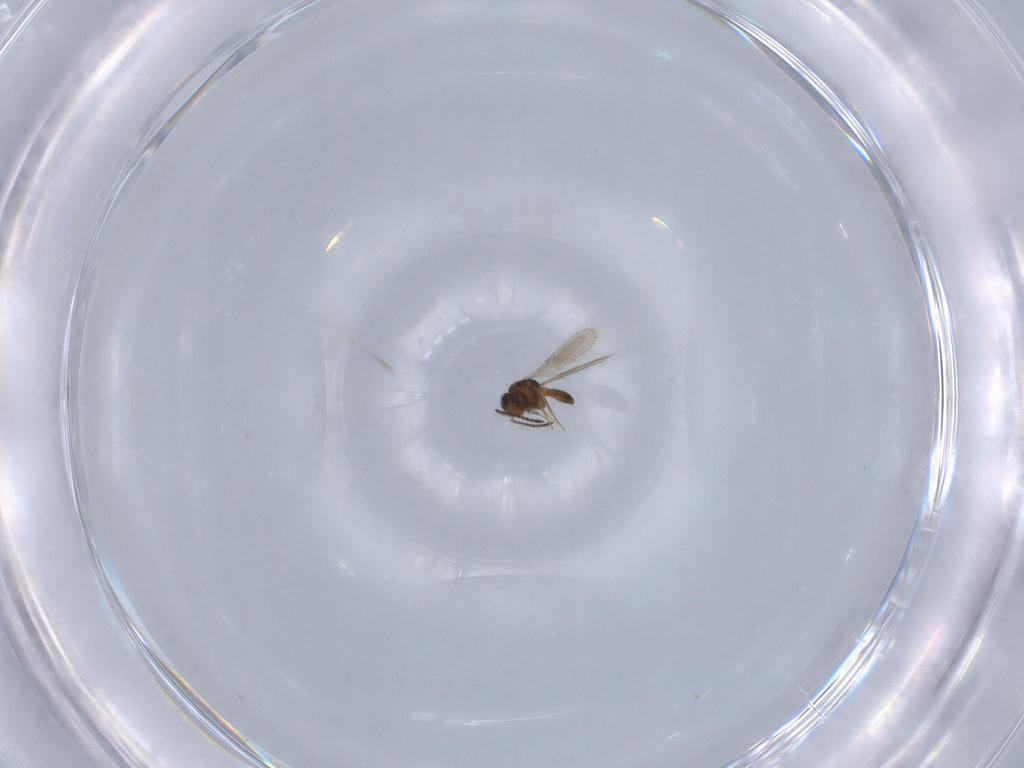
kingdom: Animalia
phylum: Arthropoda
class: Insecta
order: Hymenoptera
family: Scelionidae
